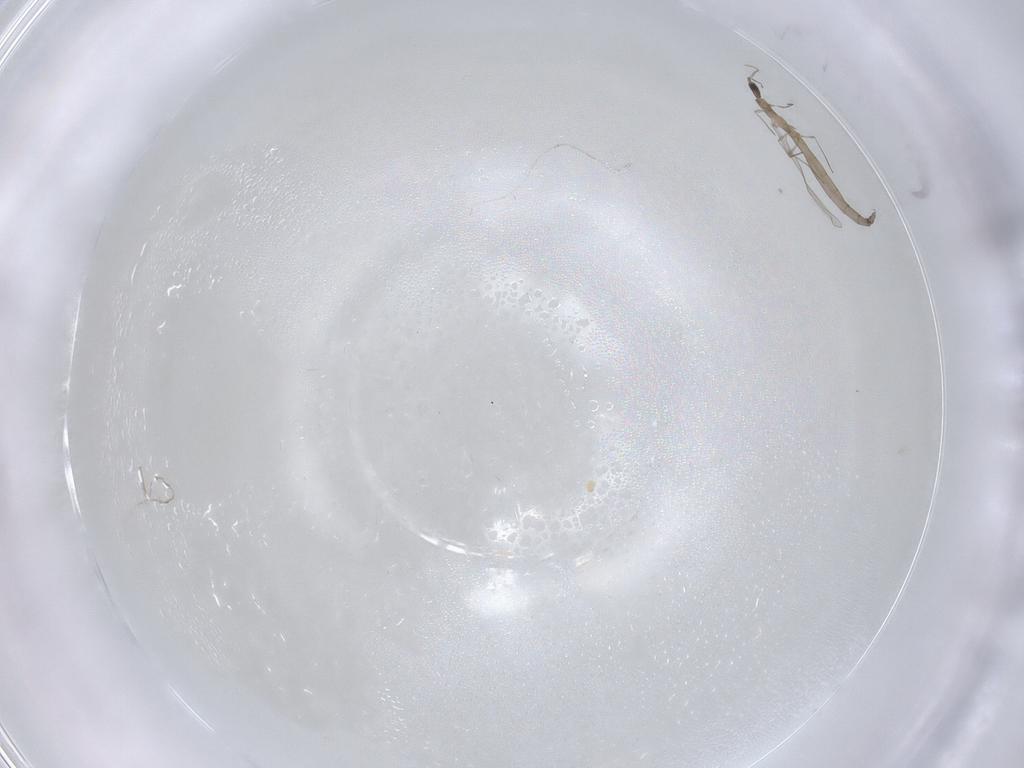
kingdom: Animalia
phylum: Arthropoda
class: Insecta
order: Diptera
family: Cecidomyiidae
